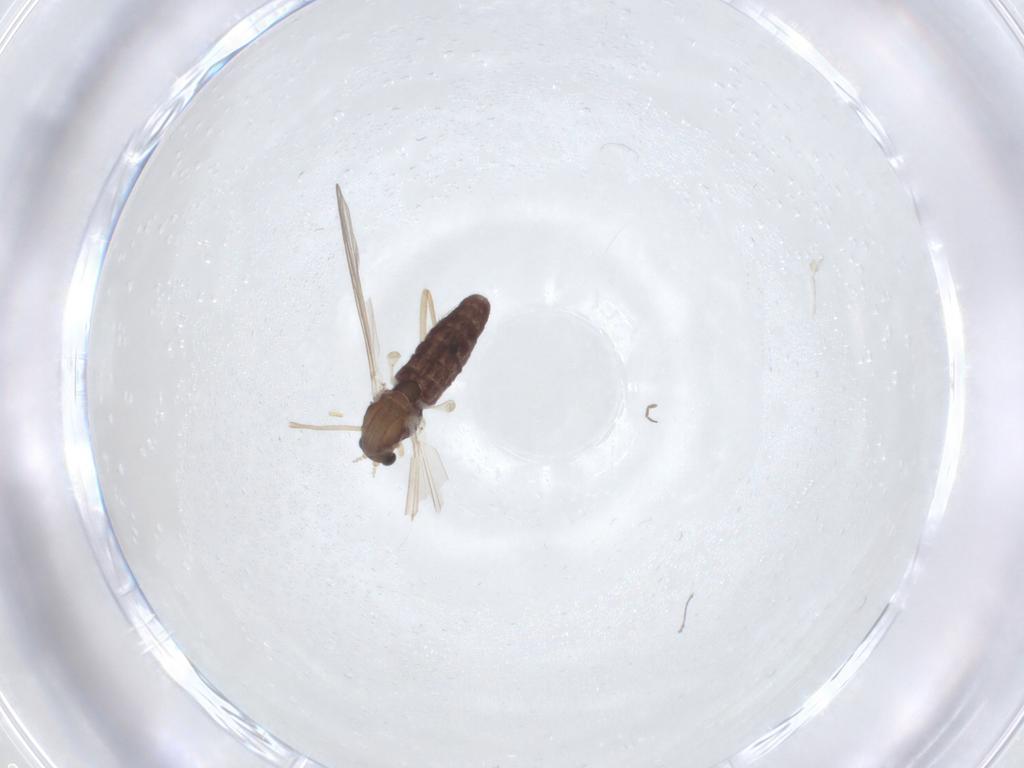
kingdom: Animalia
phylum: Arthropoda
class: Insecta
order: Diptera
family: Chironomidae
